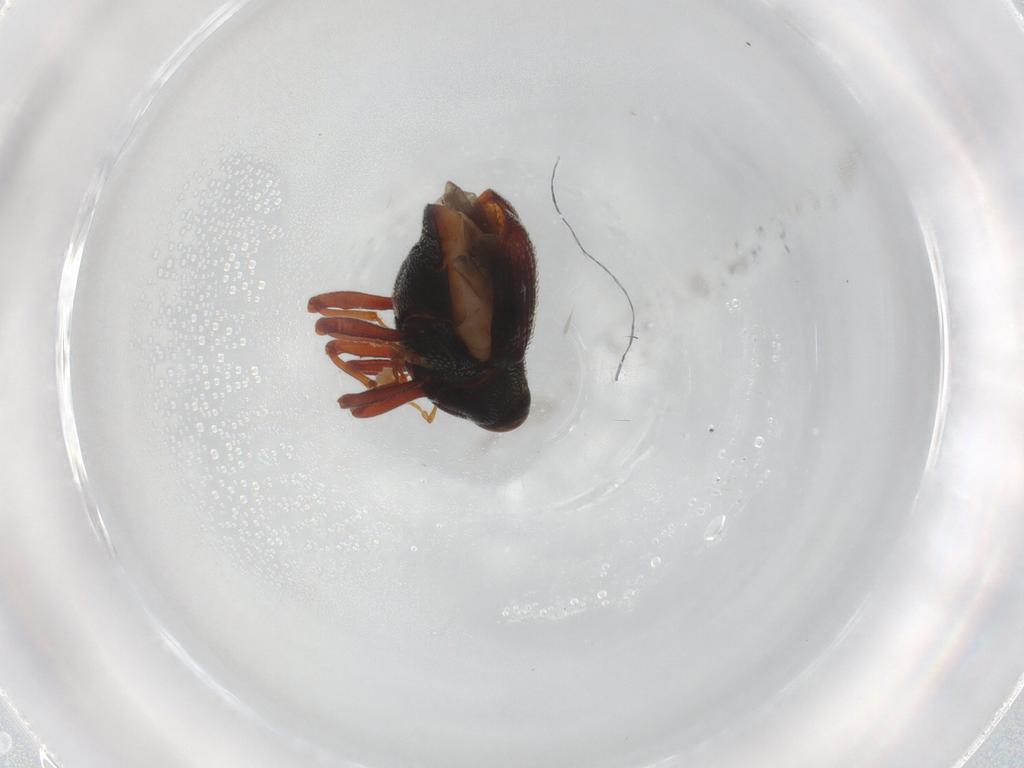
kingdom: Animalia
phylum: Arthropoda
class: Insecta
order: Coleoptera
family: Curculionidae
